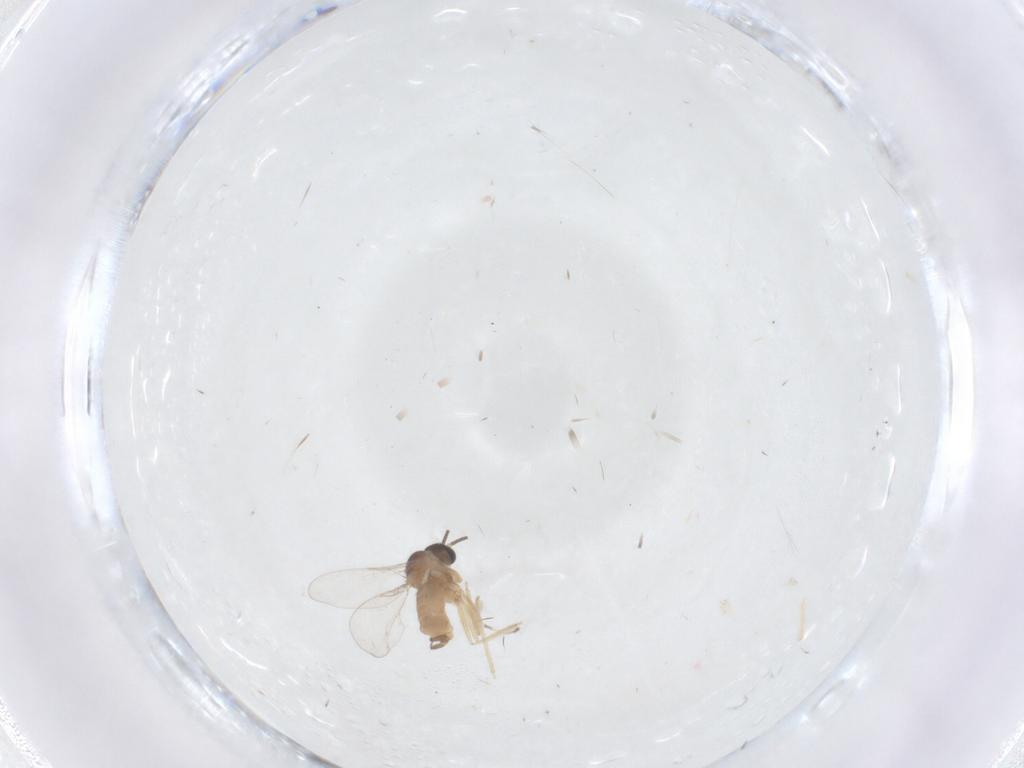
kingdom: Animalia
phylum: Arthropoda
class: Insecta
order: Diptera
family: Cecidomyiidae
